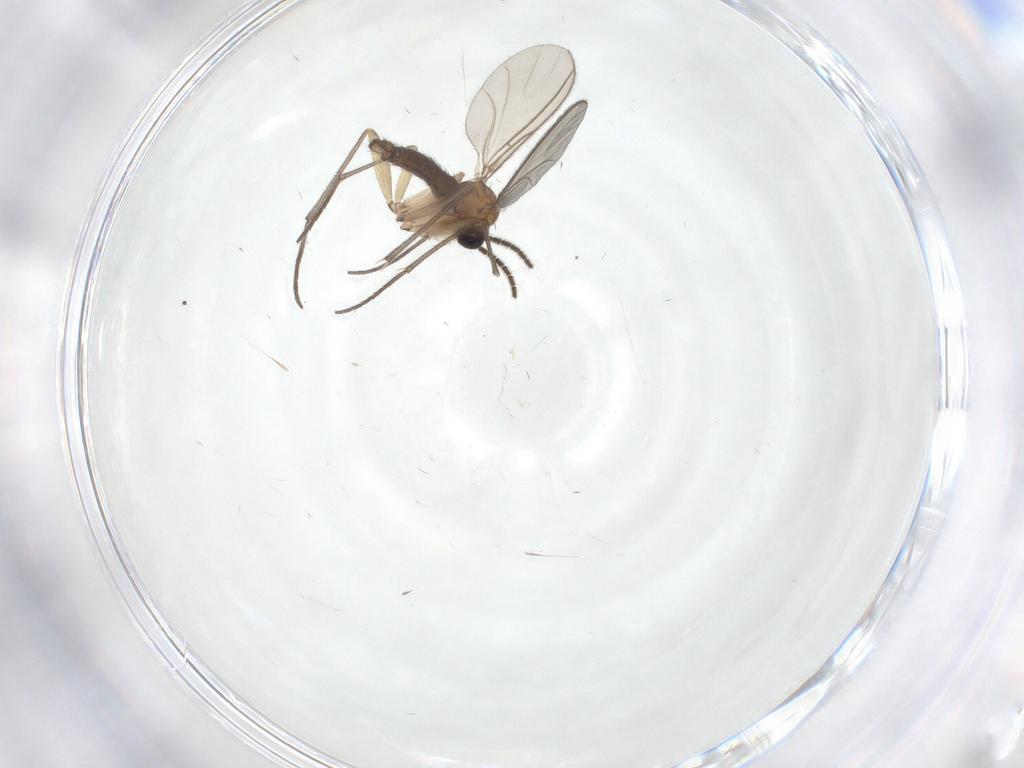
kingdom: Animalia
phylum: Arthropoda
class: Insecta
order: Diptera
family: Sciaridae
